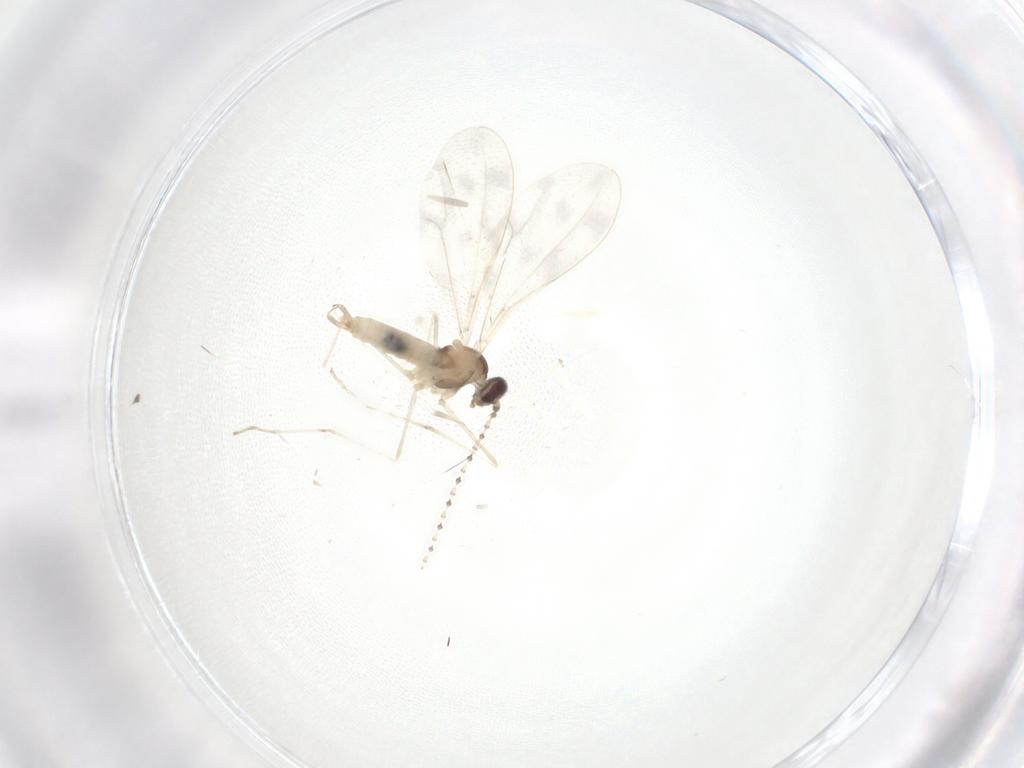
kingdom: Animalia
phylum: Arthropoda
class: Insecta
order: Diptera
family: Cecidomyiidae
